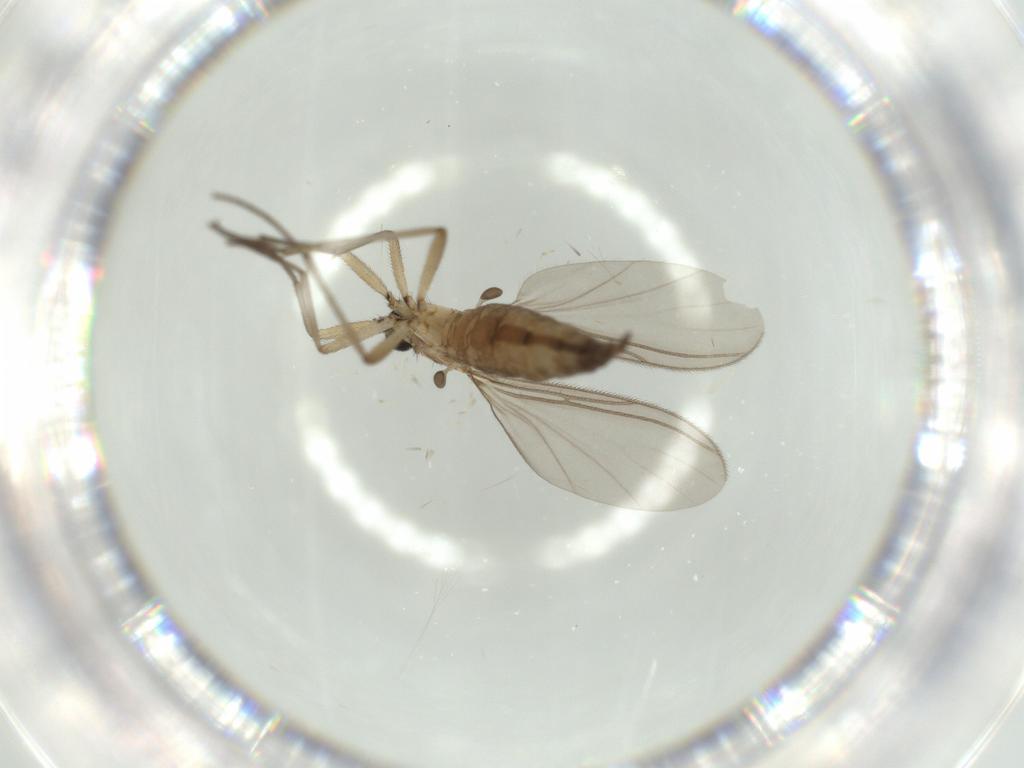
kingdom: Animalia
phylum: Arthropoda
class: Insecta
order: Diptera
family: Sciaridae
